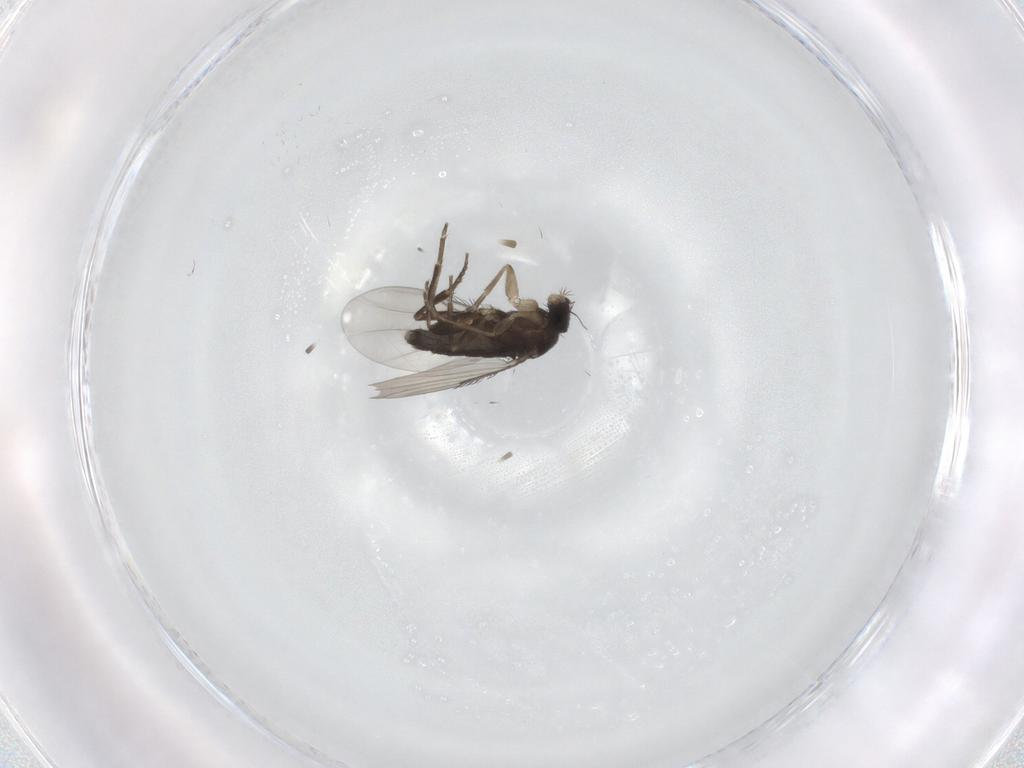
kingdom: Animalia
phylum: Arthropoda
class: Insecta
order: Diptera
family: Phoridae
